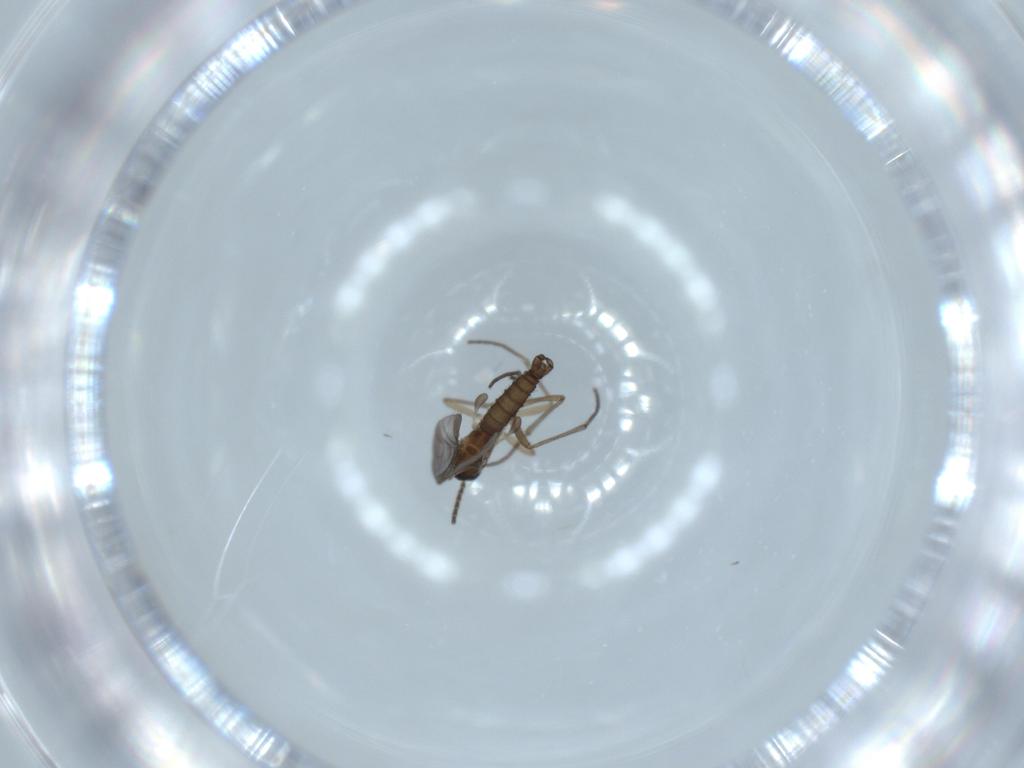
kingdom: Animalia
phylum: Arthropoda
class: Insecta
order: Diptera
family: Sciaridae
